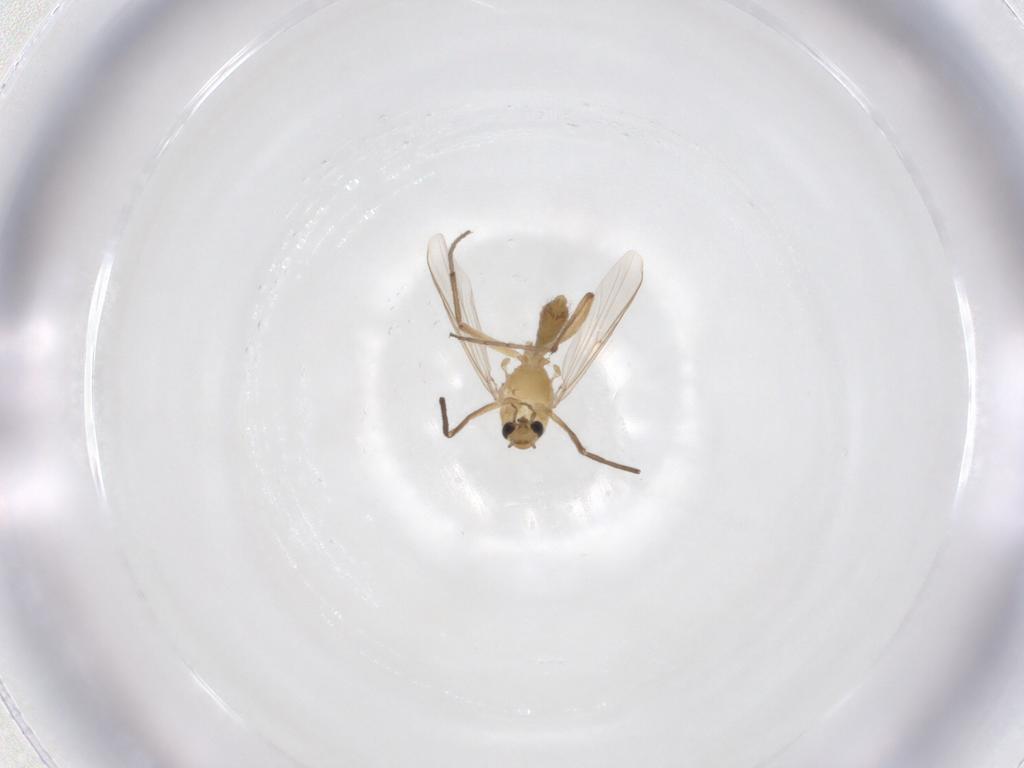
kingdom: Animalia
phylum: Arthropoda
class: Insecta
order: Diptera
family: Chironomidae
